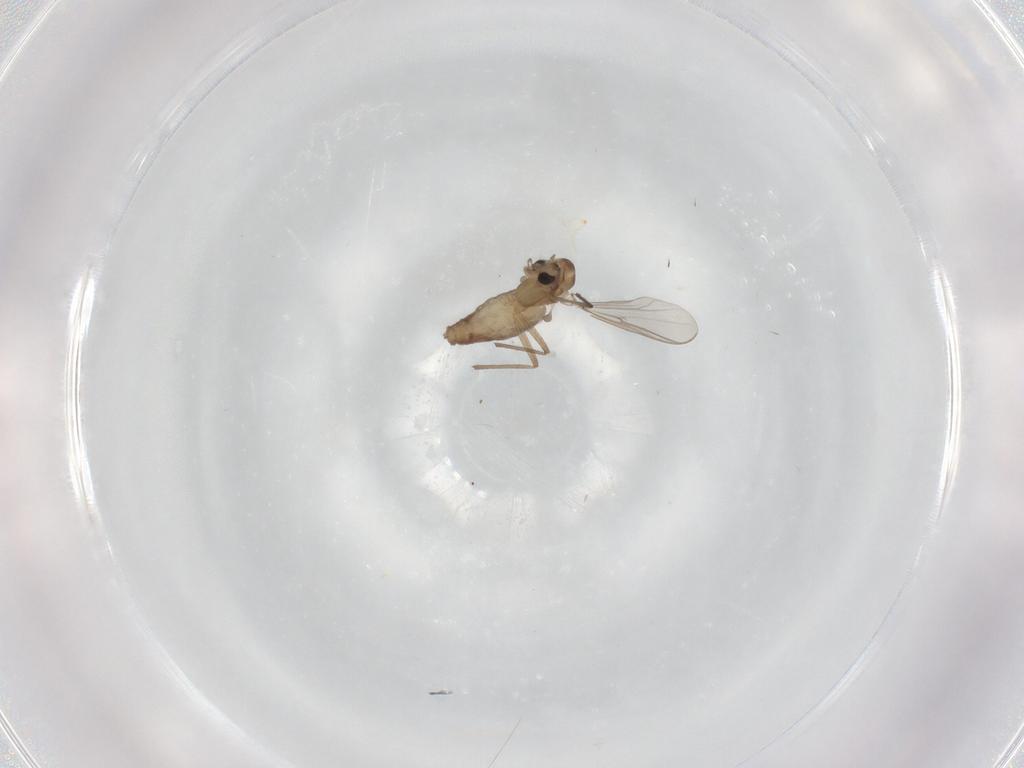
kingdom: Animalia
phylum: Arthropoda
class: Insecta
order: Diptera
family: Chironomidae
